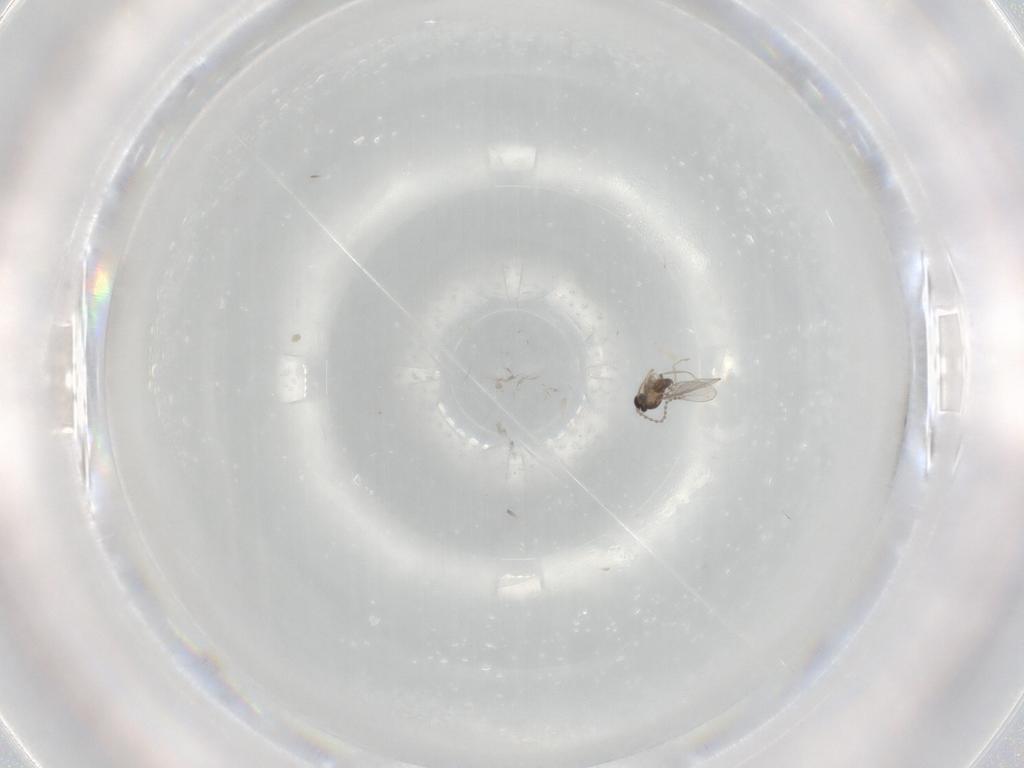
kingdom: Animalia
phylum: Arthropoda
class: Insecta
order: Diptera
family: Cecidomyiidae
